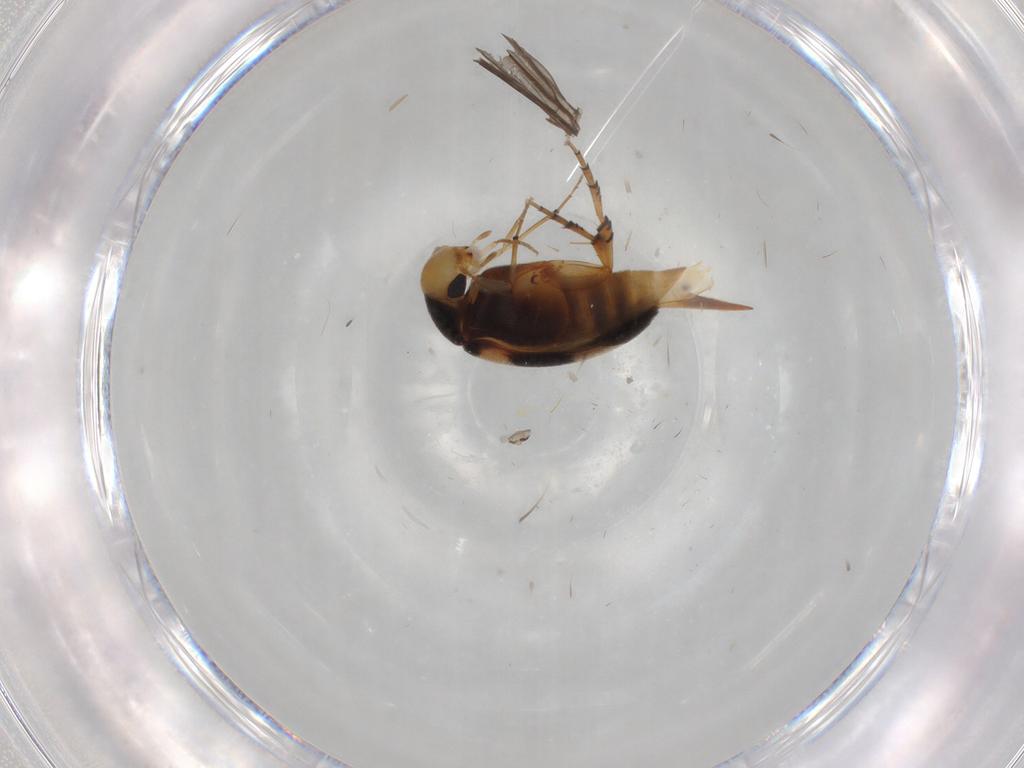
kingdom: Animalia
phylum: Arthropoda
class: Insecta
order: Coleoptera
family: Mordellidae
